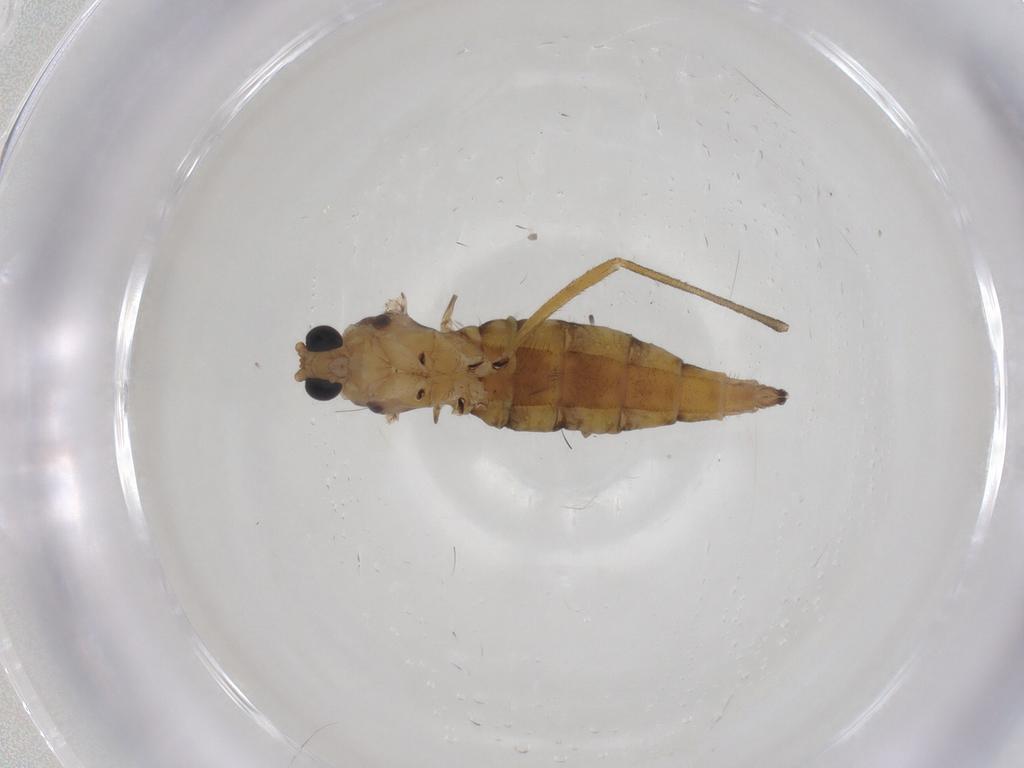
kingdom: Animalia
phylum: Arthropoda
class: Insecta
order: Diptera
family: Sciaridae
